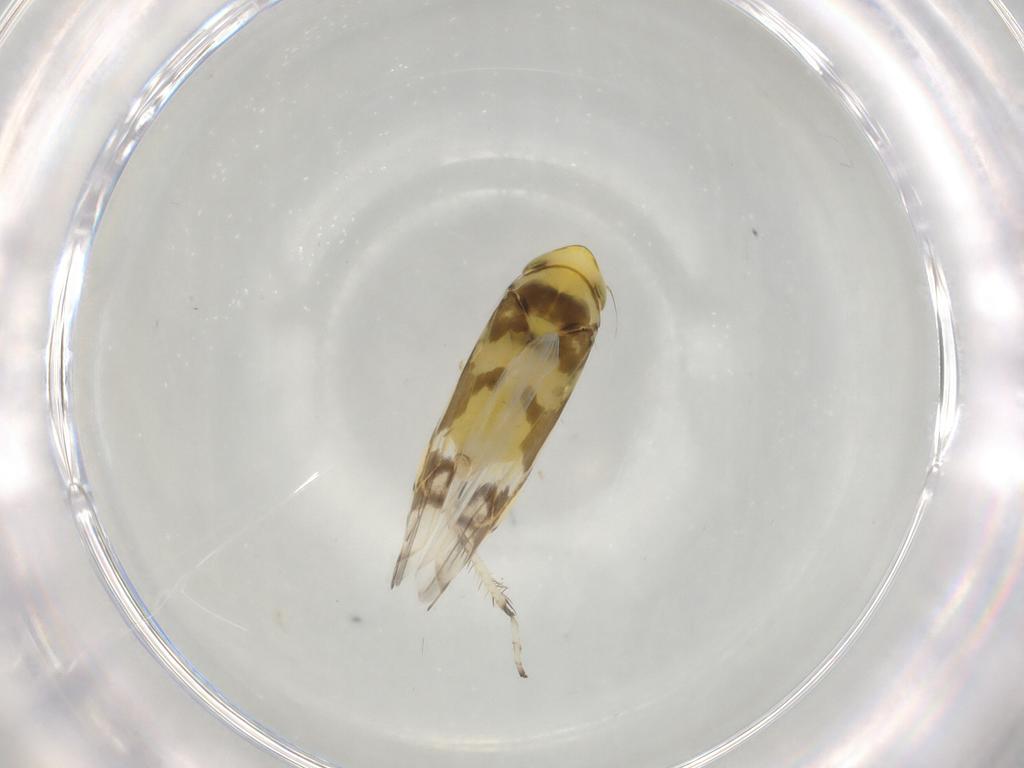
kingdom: Animalia
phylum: Arthropoda
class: Insecta
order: Hemiptera
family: Cicadellidae
